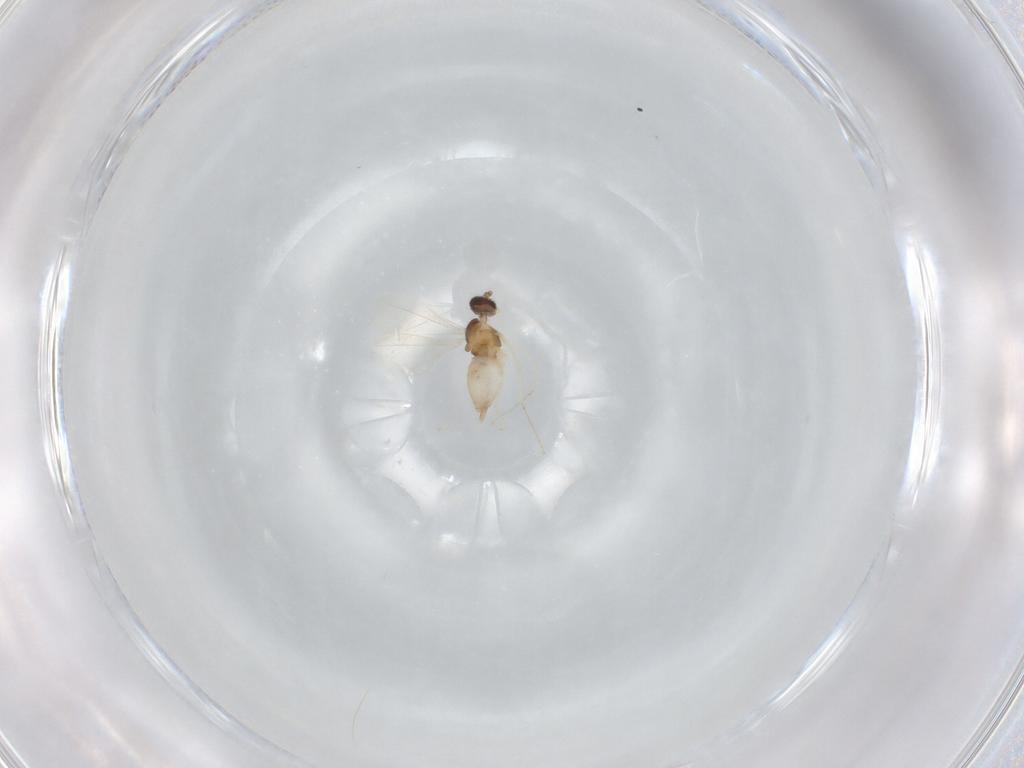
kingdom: Animalia
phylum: Arthropoda
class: Insecta
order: Diptera
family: Cecidomyiidae
